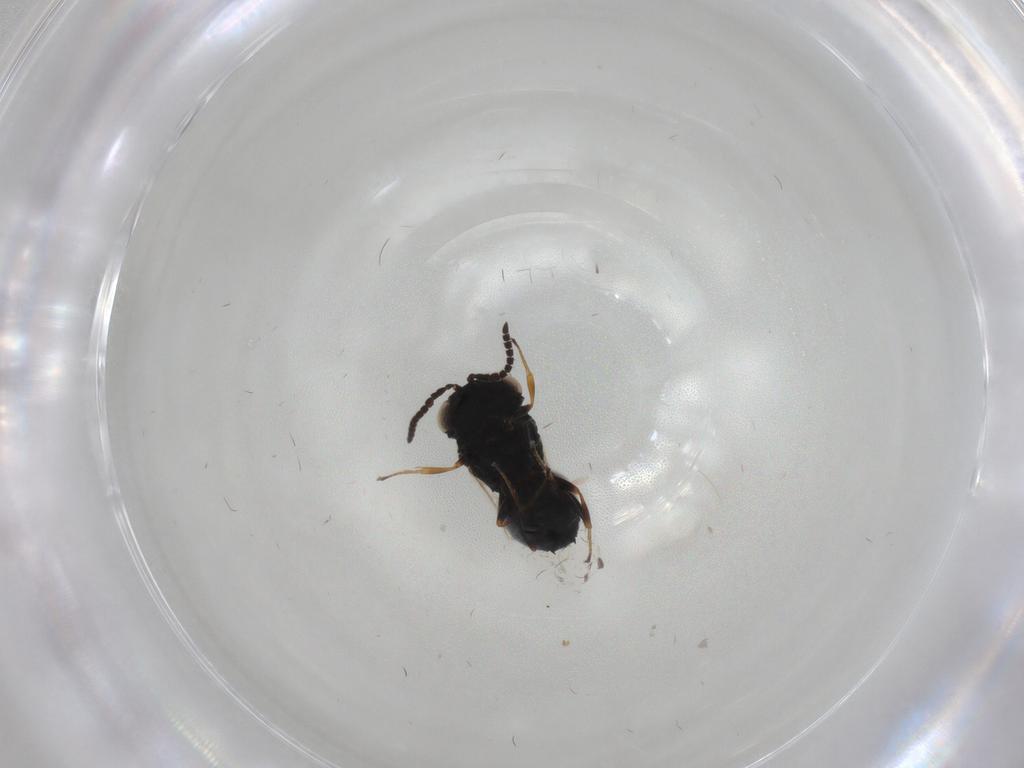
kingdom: Animalia
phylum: Arthropoda
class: Insecta
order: Hymenoptera
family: Scelionidae
